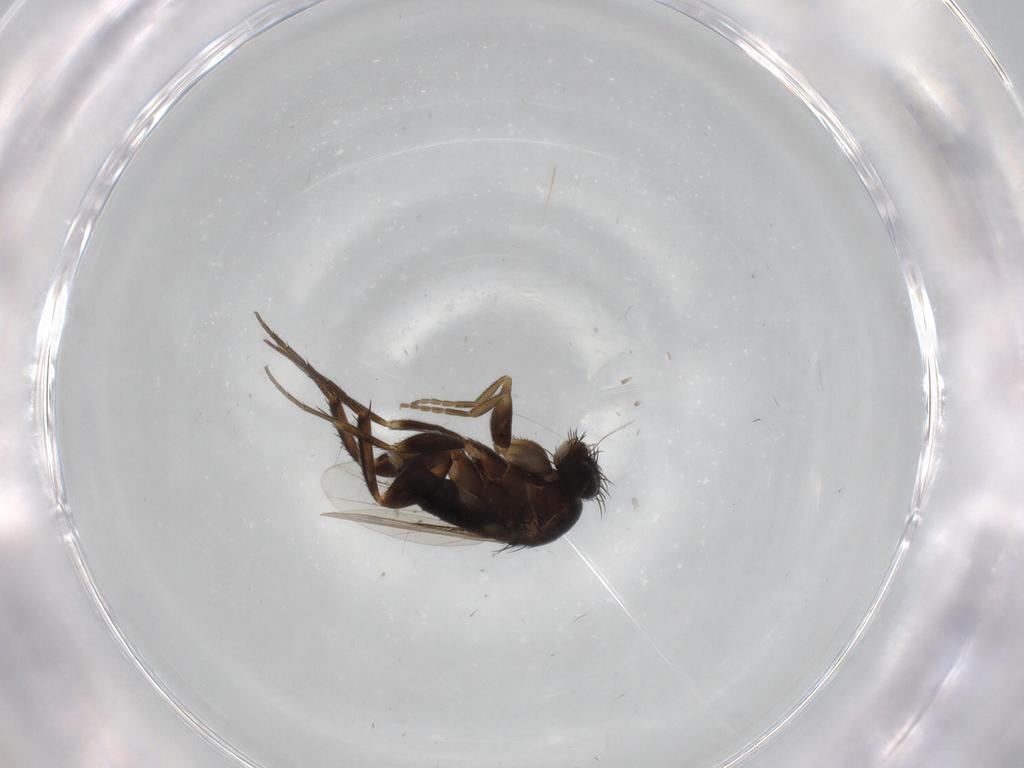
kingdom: Animalia
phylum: Arthropoda
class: Insecta
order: Diptera
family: Phoridae
